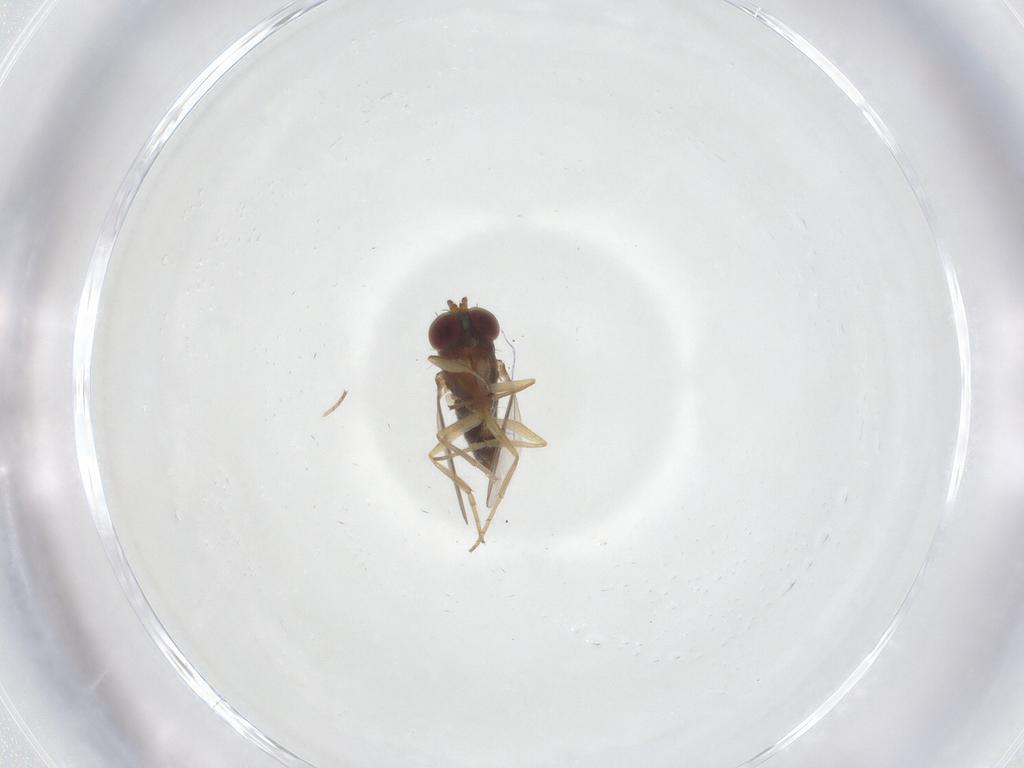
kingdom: Animalia
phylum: Arthropoda
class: Insecta
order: Diptera
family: Dolichopodidae
